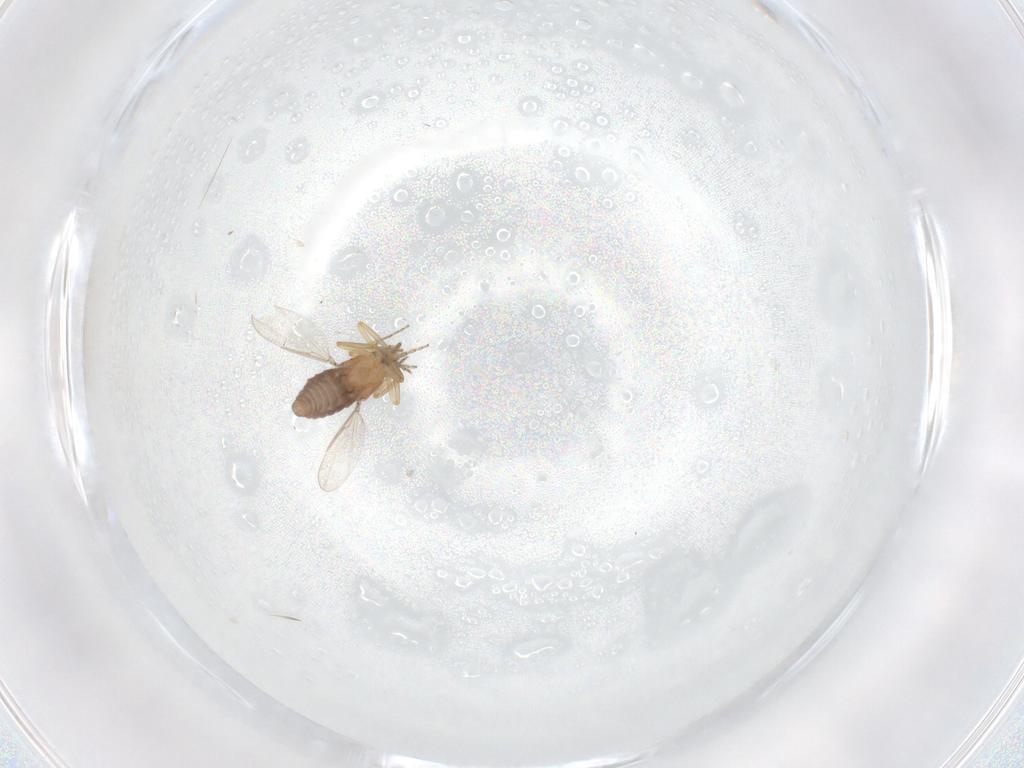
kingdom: Animalia
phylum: Arthropoda
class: Insecta
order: Diptera
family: Ceratopogonidae
